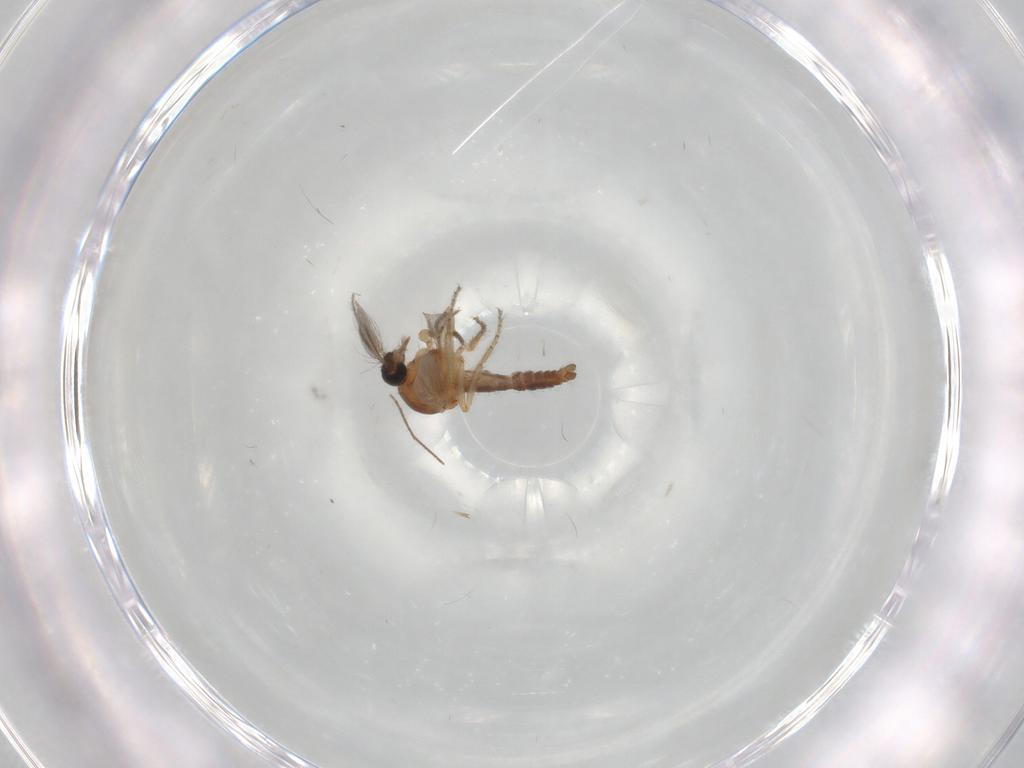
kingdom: Animalia
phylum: Arthropoda
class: Insecta
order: Diptera
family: Ceratopogonidae
